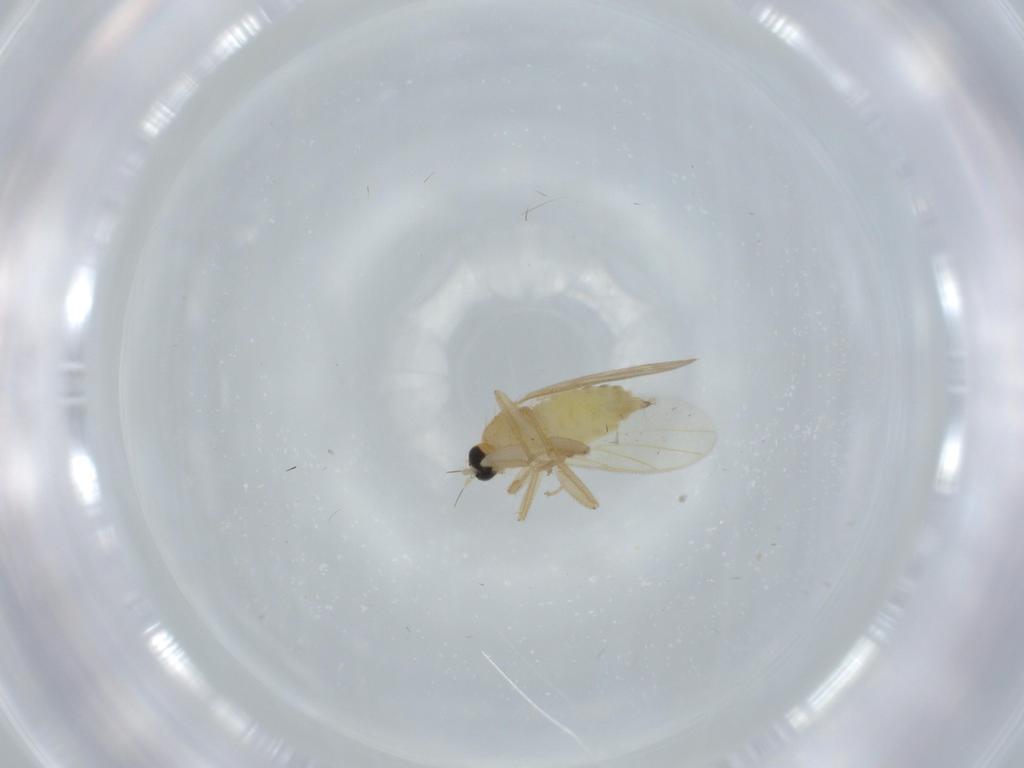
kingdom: Animalia
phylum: Arthropoda
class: Insecta
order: Diptera
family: Hybotidae
